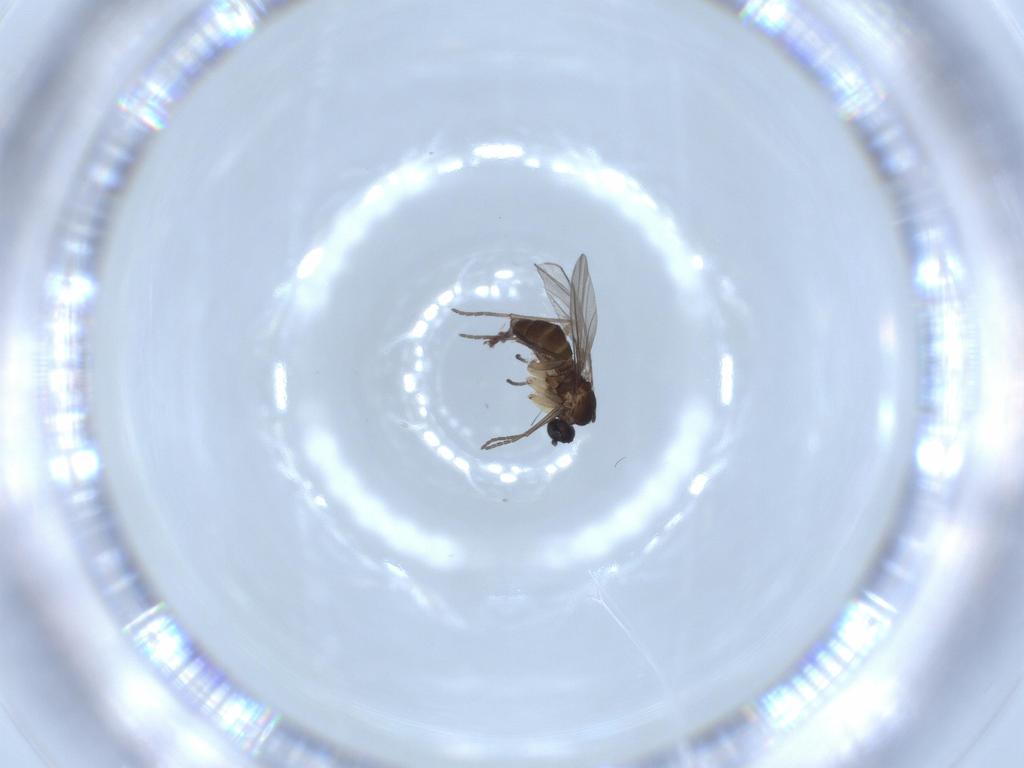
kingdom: Animalia
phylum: Arthropoda
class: Insecta
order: Diptera
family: Sciaridae
